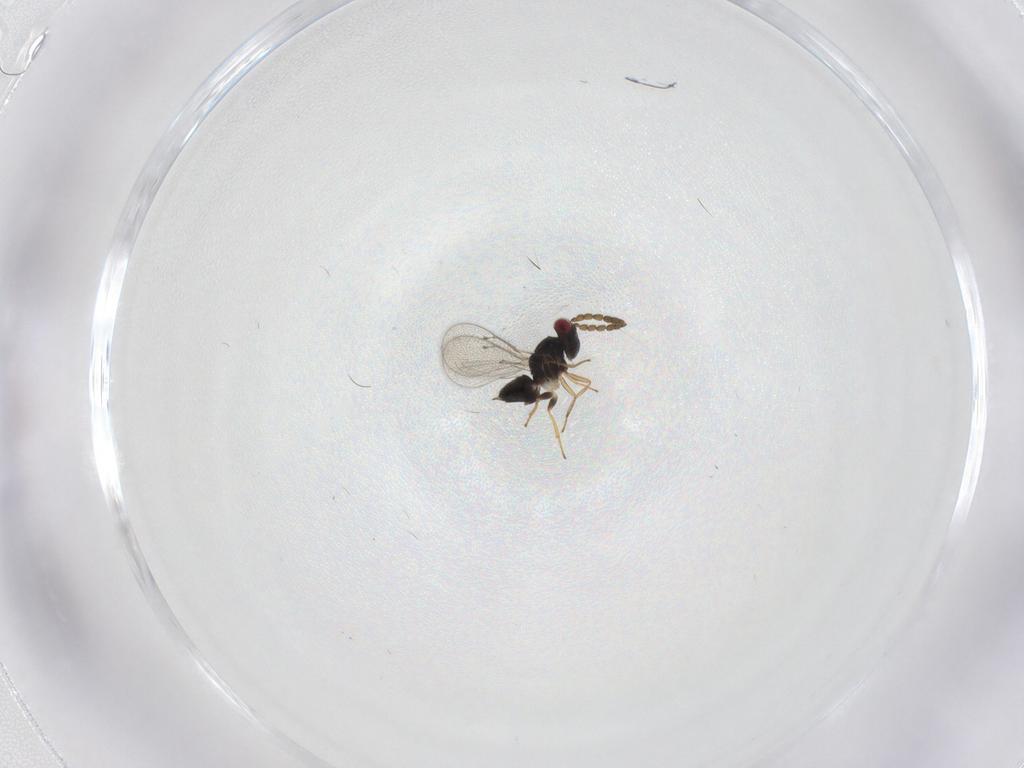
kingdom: Animalia
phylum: Arthropoda
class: Insecta
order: Hymenoptera
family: Eulophidae
